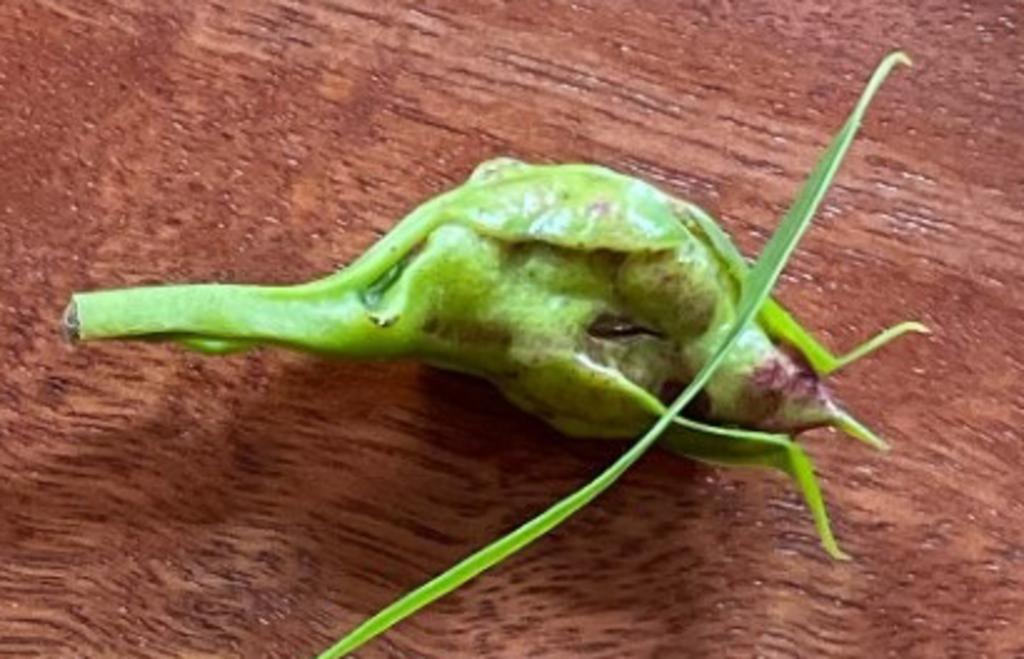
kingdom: Animalia
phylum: Arthropoda
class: Insecta
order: Diptera
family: Fergusoninidae
